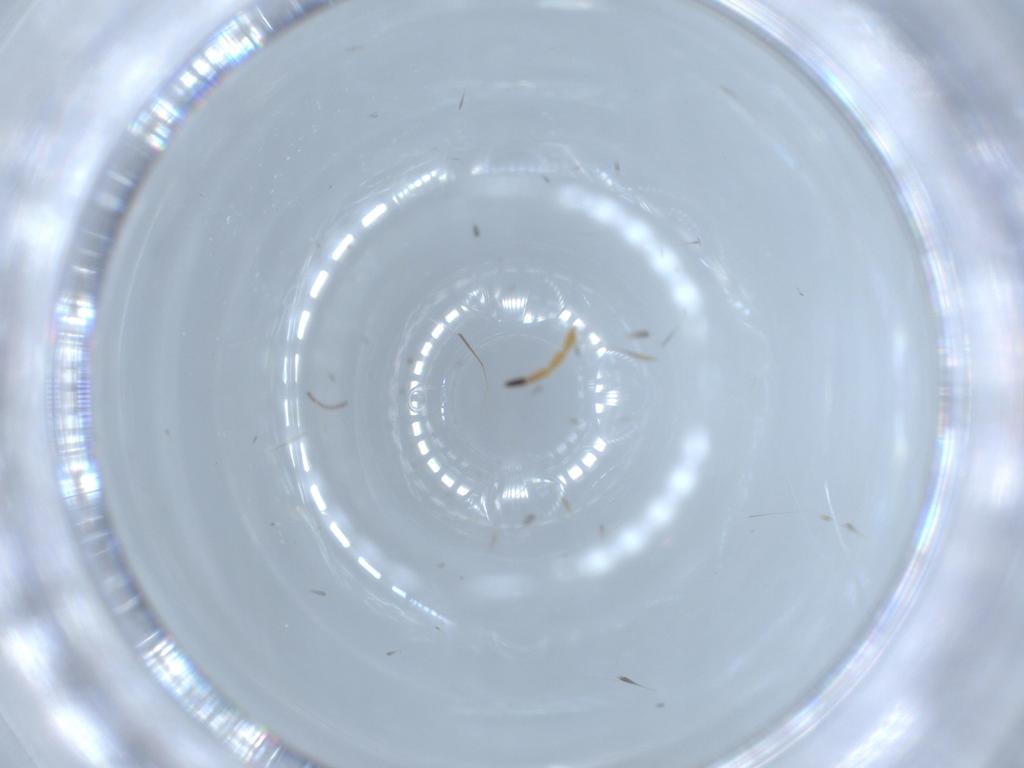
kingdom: Animalia
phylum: Arthropoda
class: Insecta
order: Coleoptera
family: Chrysomelidae
